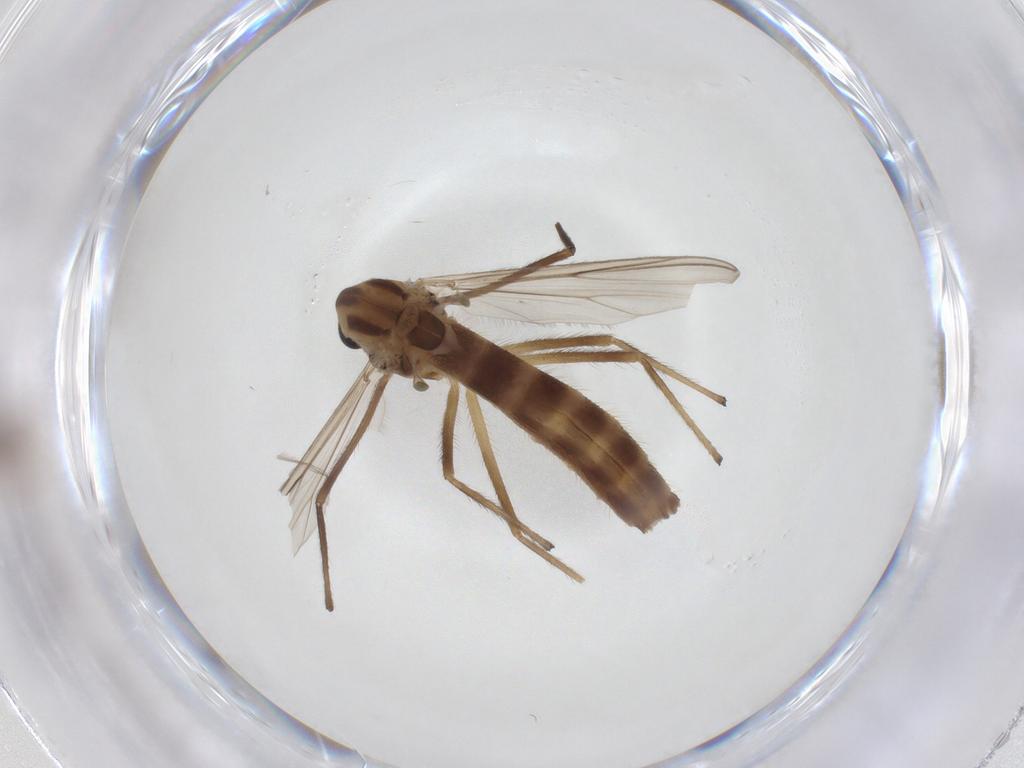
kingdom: Animalia
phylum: Arthropoda
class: Insecta
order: Diptera
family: Chironomidae
